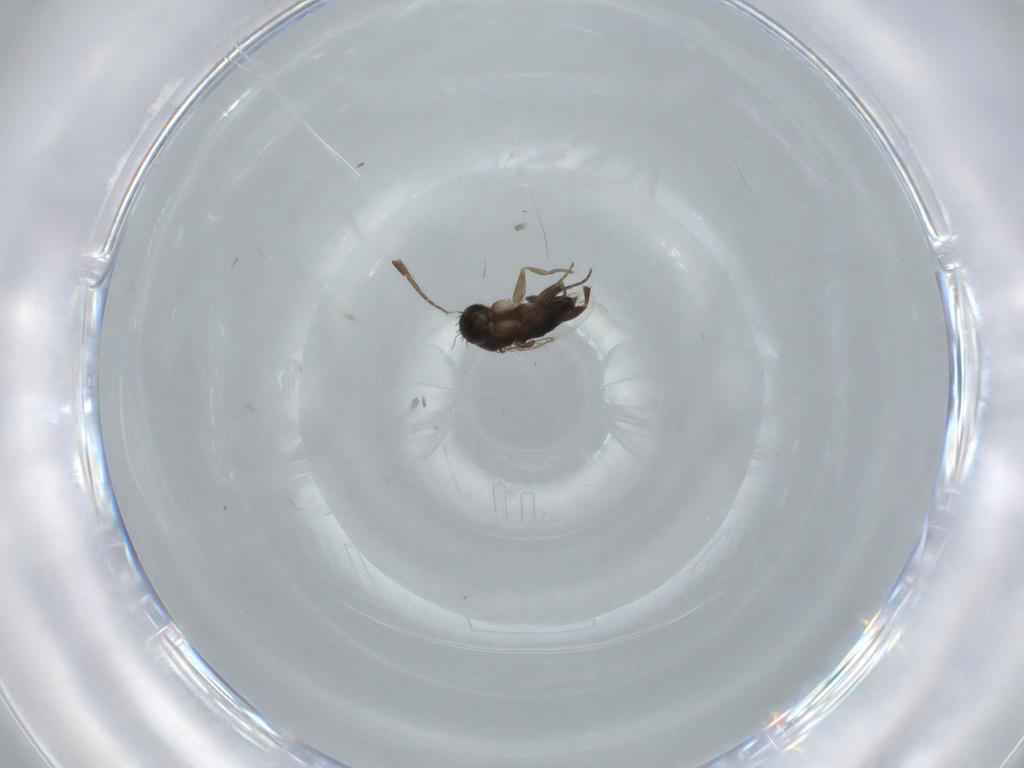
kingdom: Animalia
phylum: Arthropoda
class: Insecta
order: Diptera
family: Phoridae
